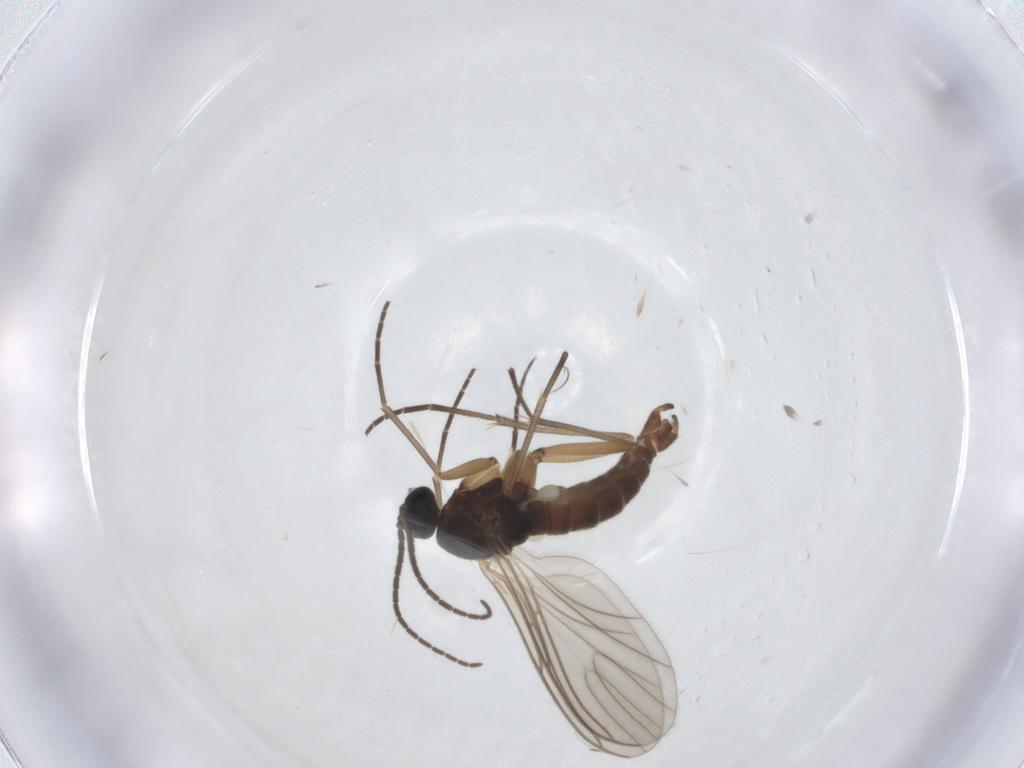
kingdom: Animalia
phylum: Arthropoda
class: Insecta
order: Diptera
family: Sciaridae
